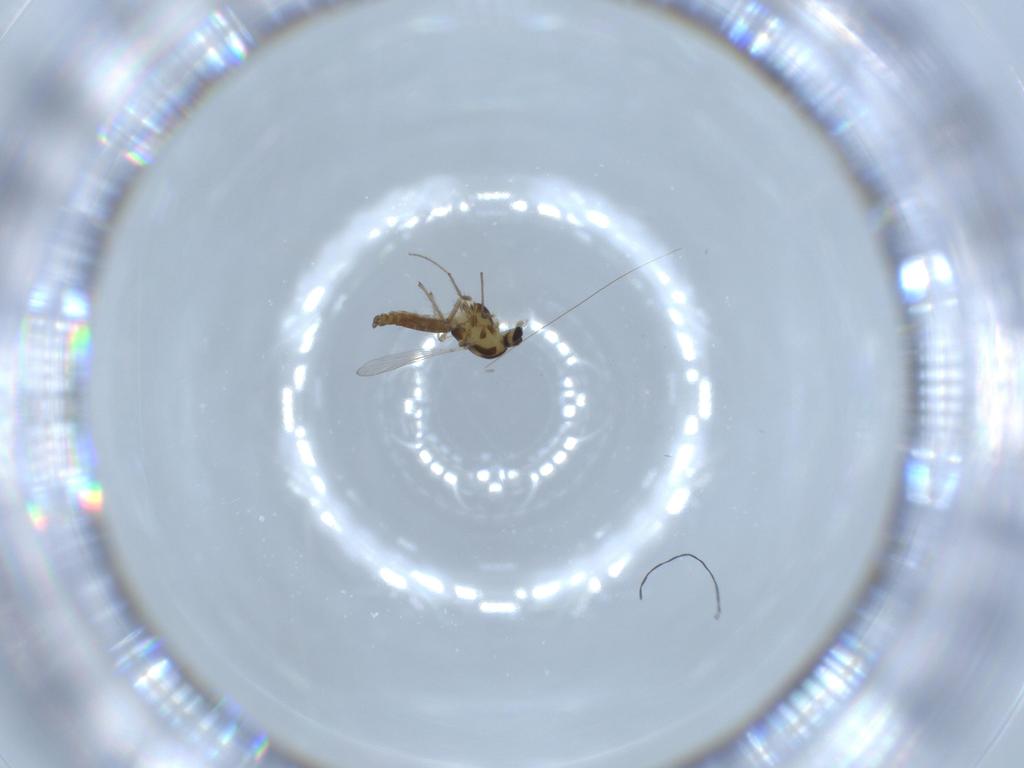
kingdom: Animalia
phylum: Arthropoda
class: Insecta
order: Diptera
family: Chironomidae
